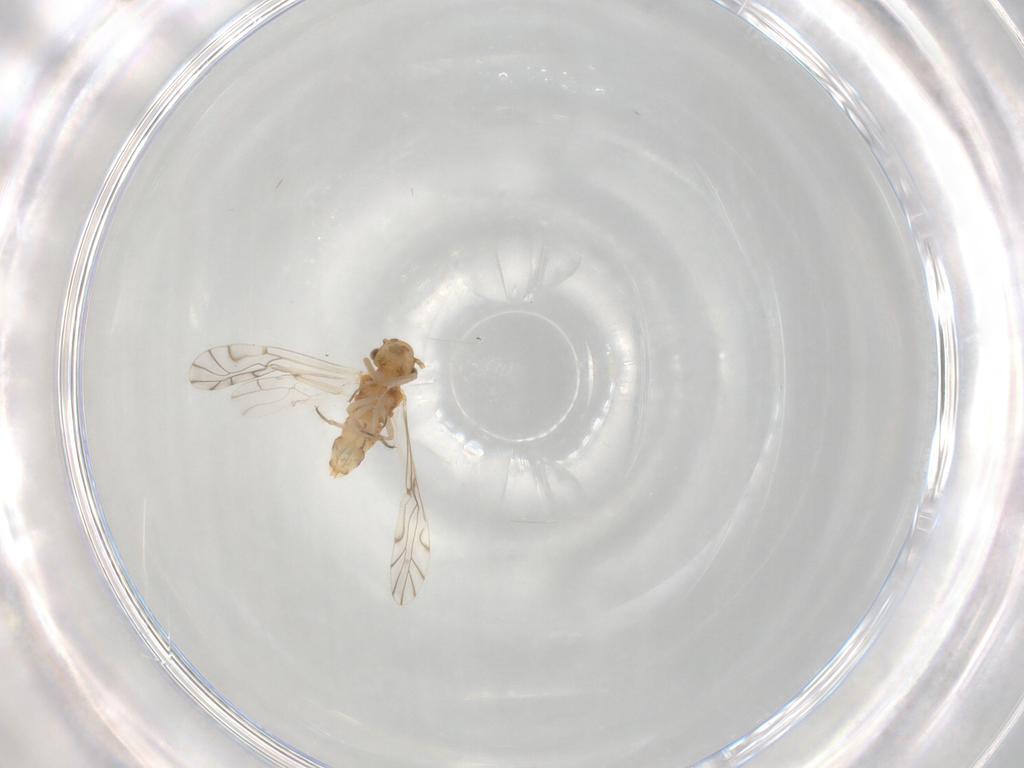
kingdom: Animalia
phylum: Arthropoda
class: Insecta
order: Psocodea
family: Lachesillidae
